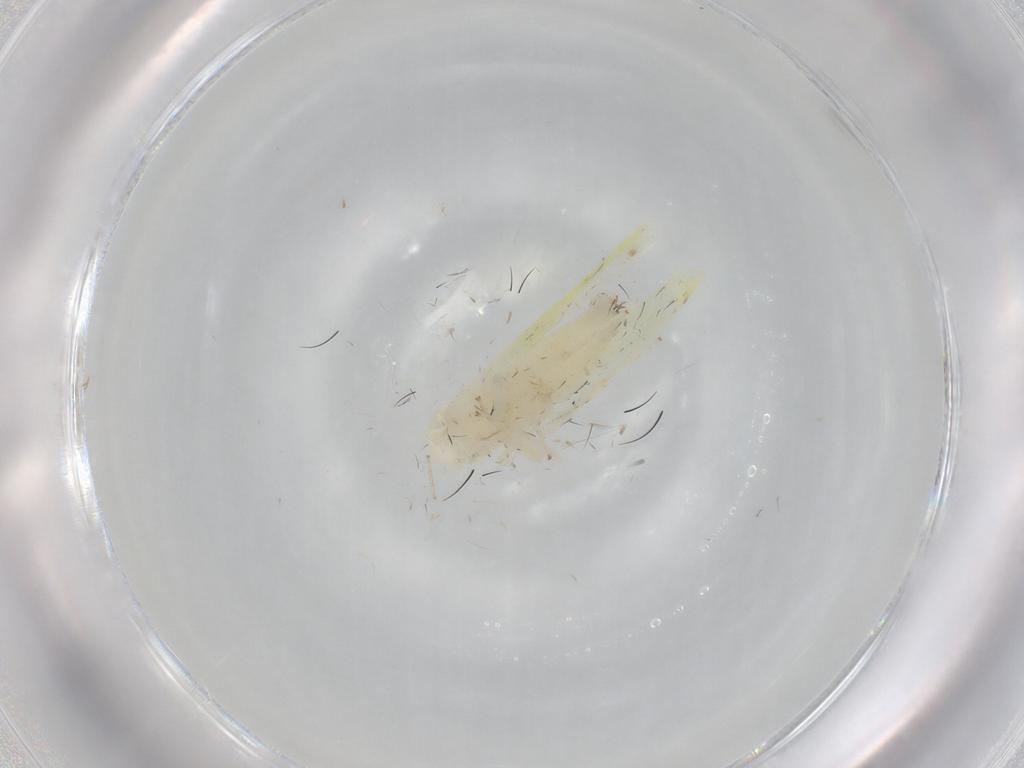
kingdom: Animalia
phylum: Arthropoda
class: Insecta
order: Hemiptera
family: Cicadellidae
